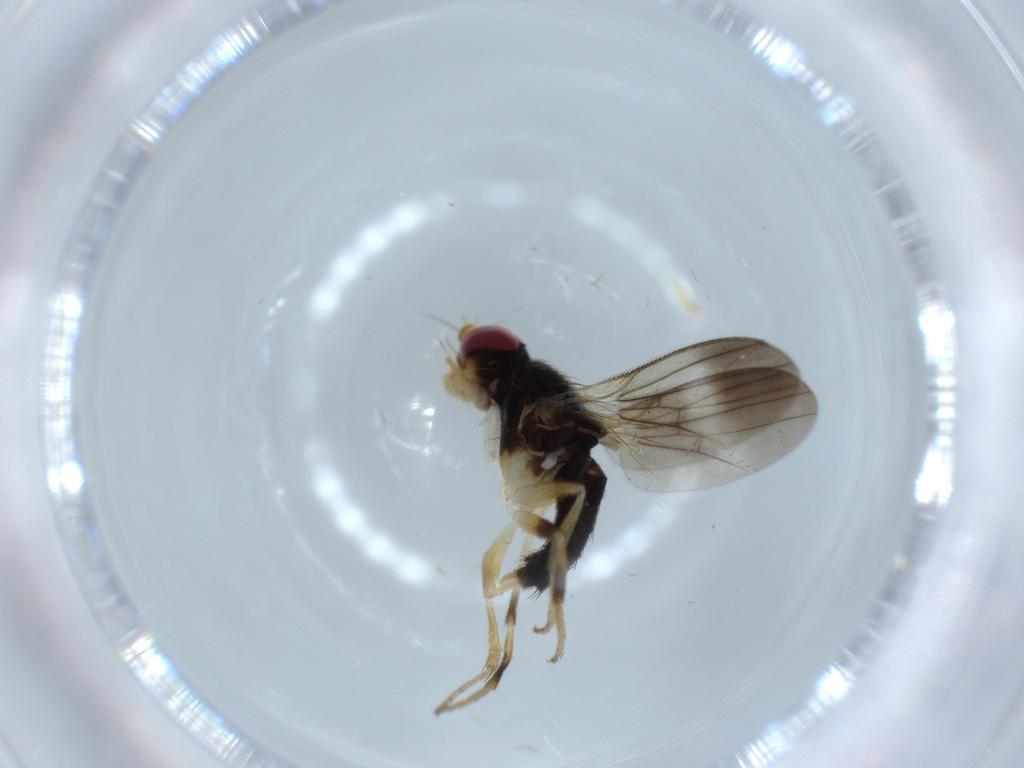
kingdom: Animalia
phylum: Arthropoda
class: Insecta
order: Diptera
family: Clusiidae
